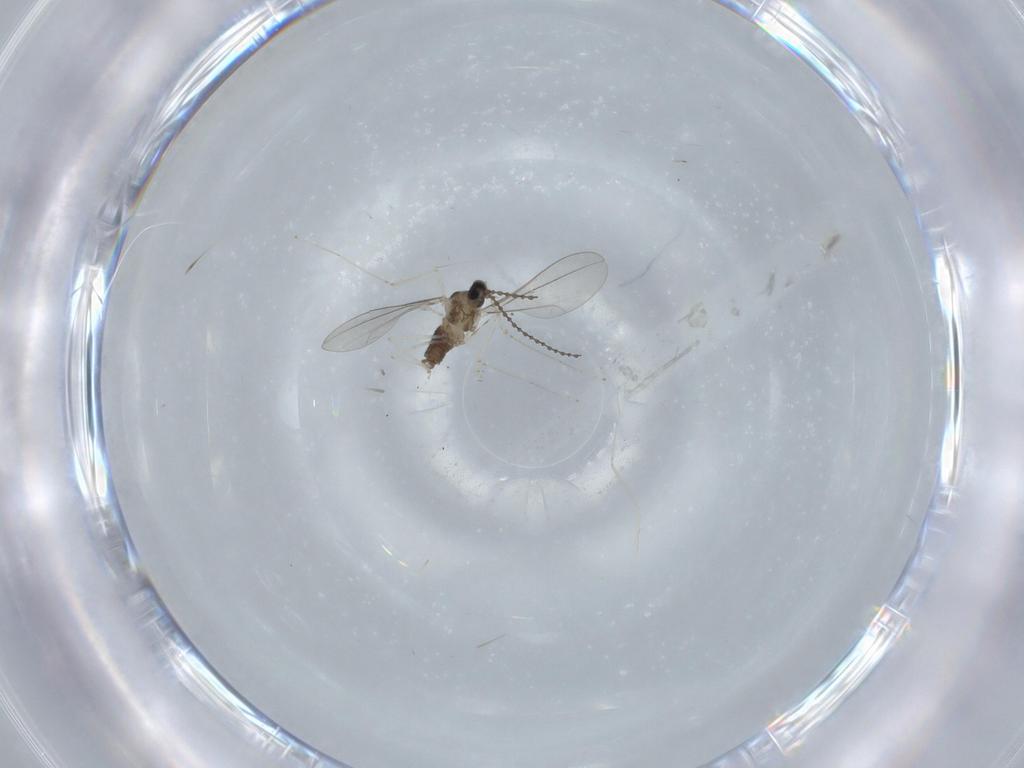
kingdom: Animalia
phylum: Arthropoda
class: Insecta
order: Diptera
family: Cecidomyiidae
